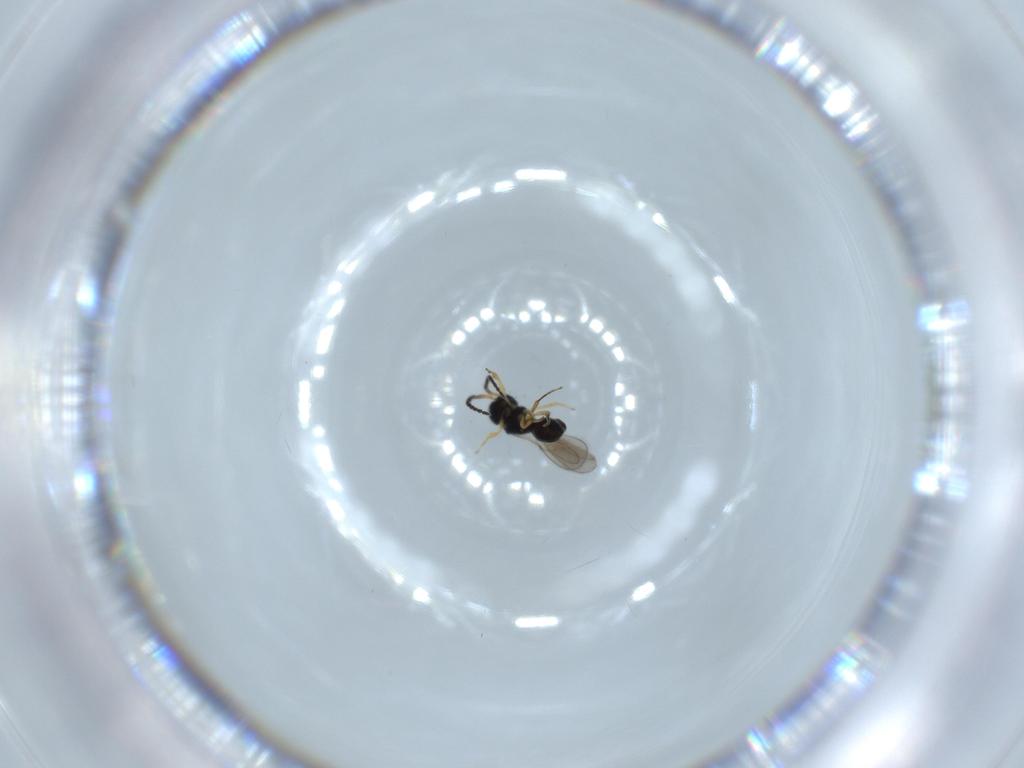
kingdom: Animalia
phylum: Arthropoda
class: Insecta
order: Hymenoptera
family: Scelionidae
